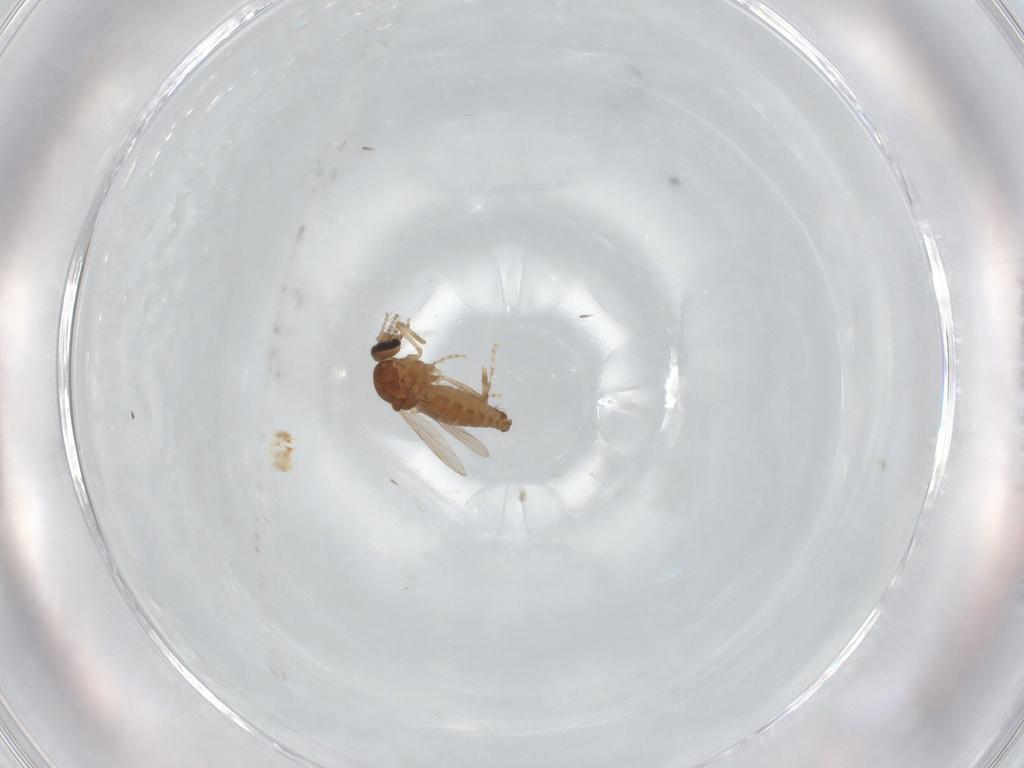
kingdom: Animalia
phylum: Arthropoda
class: Insecta
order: Diptera
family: Ceratopogonidae
